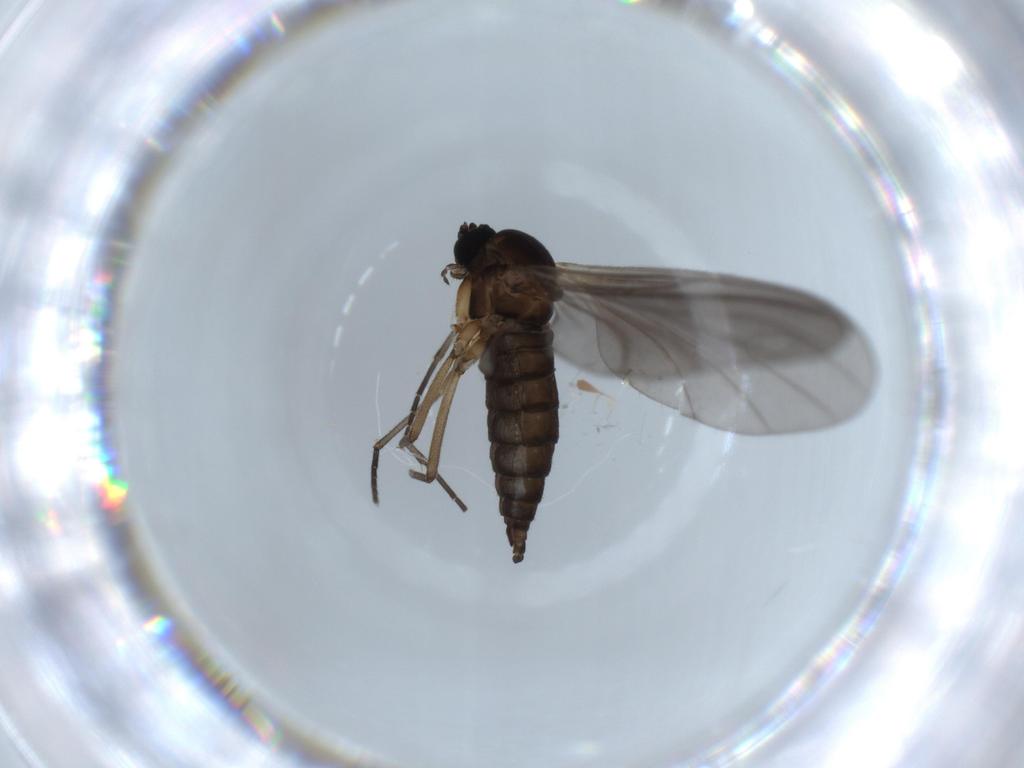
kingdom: Animalia
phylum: Arthropoda
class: Insecta
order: Diptera
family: Sciaridae
